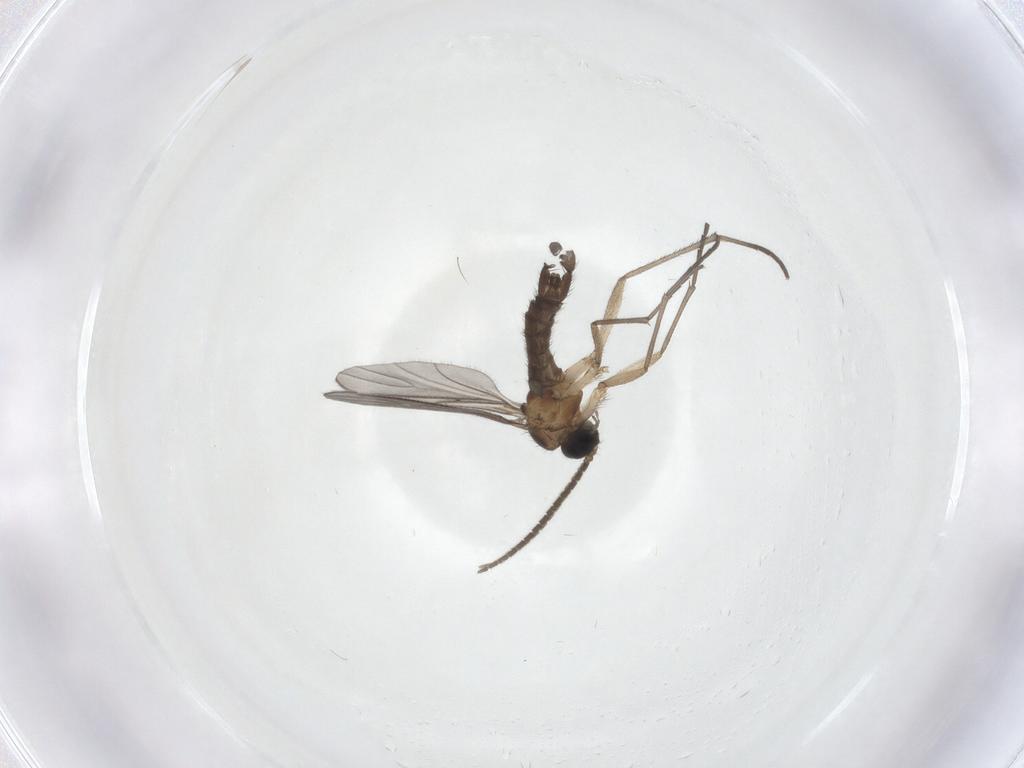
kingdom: Animalia
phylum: Arthropoda
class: Insecta
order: Diptera
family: Sciaridae
